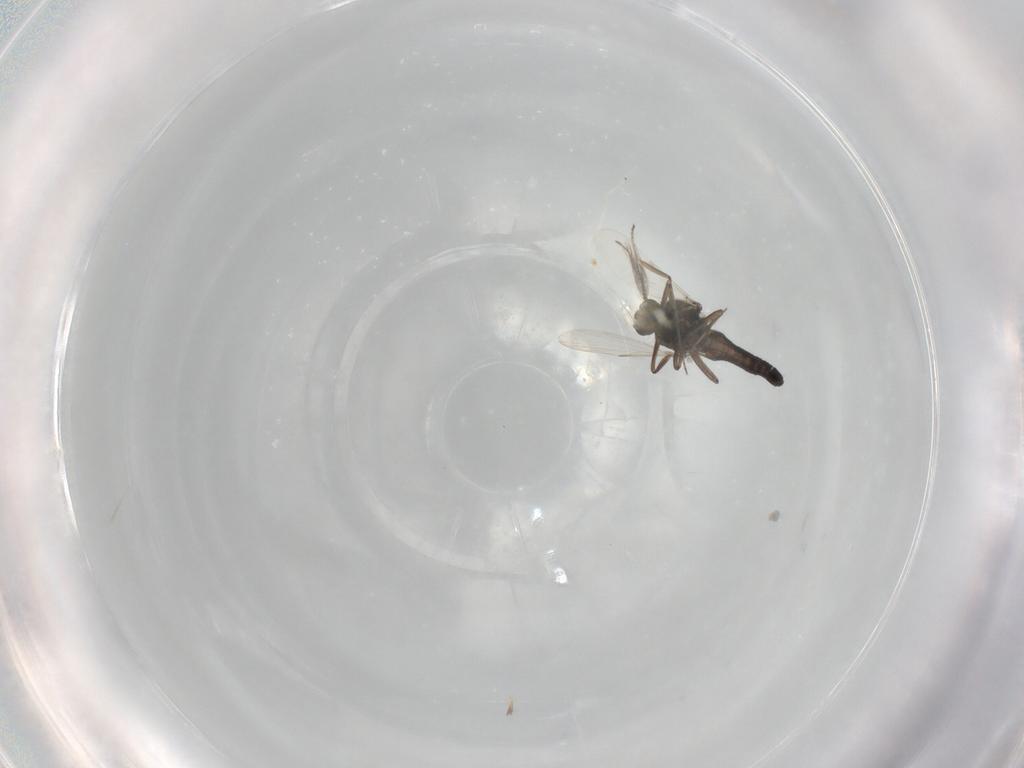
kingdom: Animalia
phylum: Arthropoda
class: Insecta
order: Diptera
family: Ceratopogonidae
